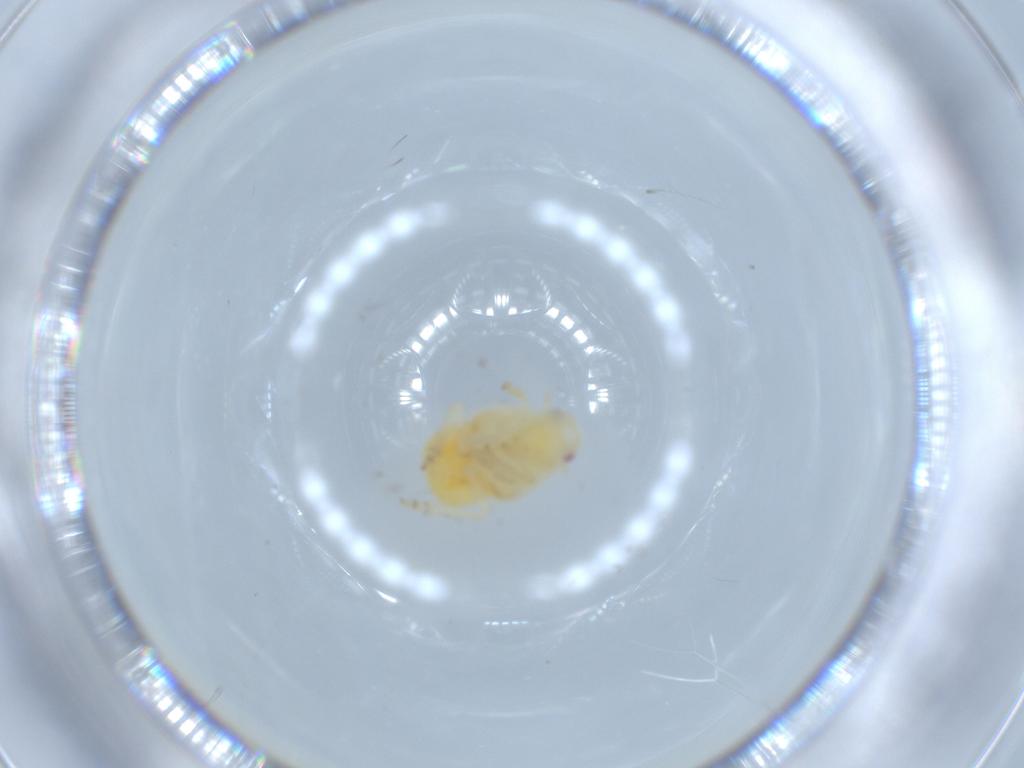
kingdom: Animalia
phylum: Arthropoda
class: Insecta
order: Hemiptera
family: Flatidae
